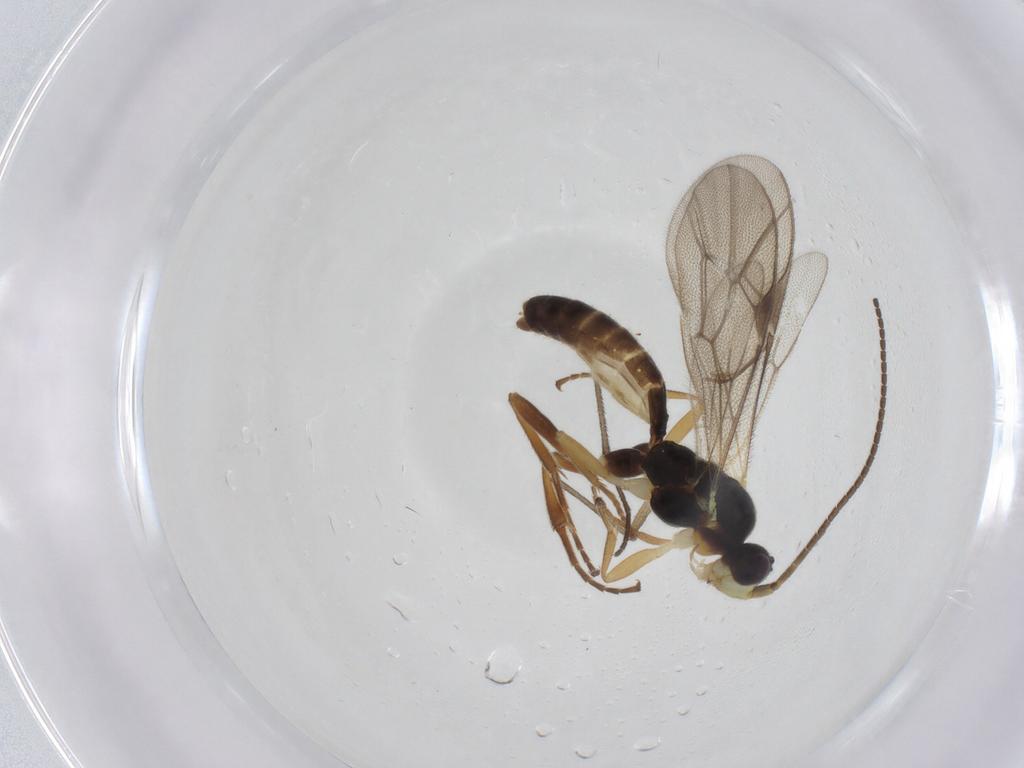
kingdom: Animalia
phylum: Arthropoda
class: Insecta
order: Hymenoptera
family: Ichneumonidae
